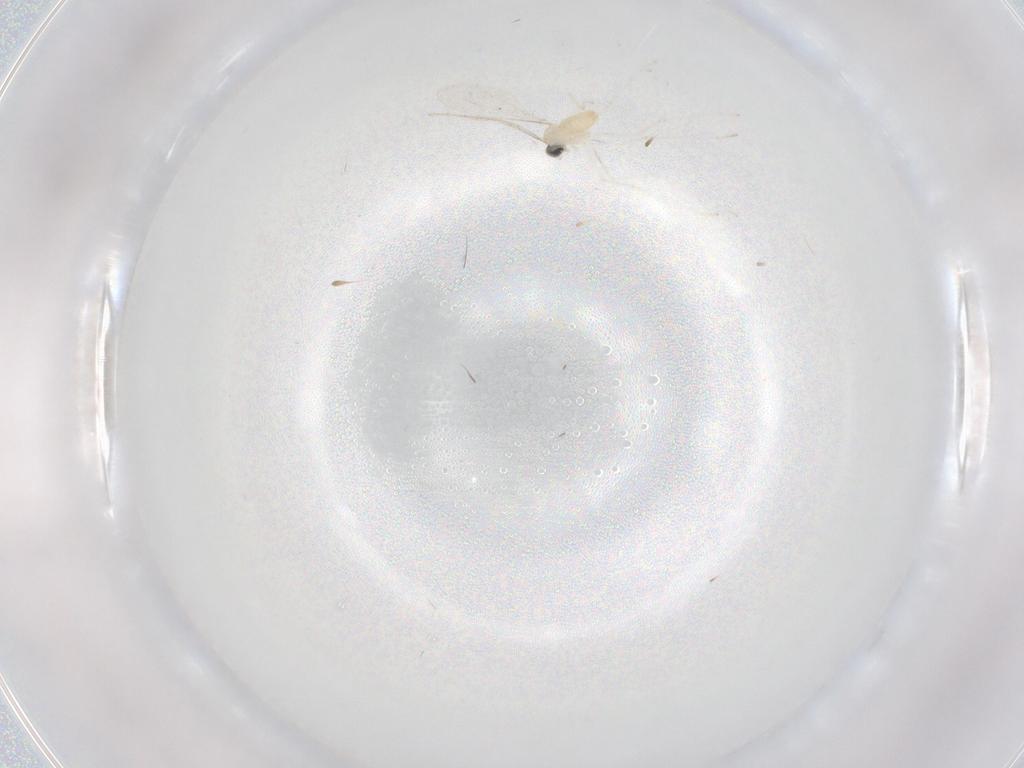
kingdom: Animalia
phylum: Arthropoda
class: Insecta
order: Diptera
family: Cecidomyiidae
